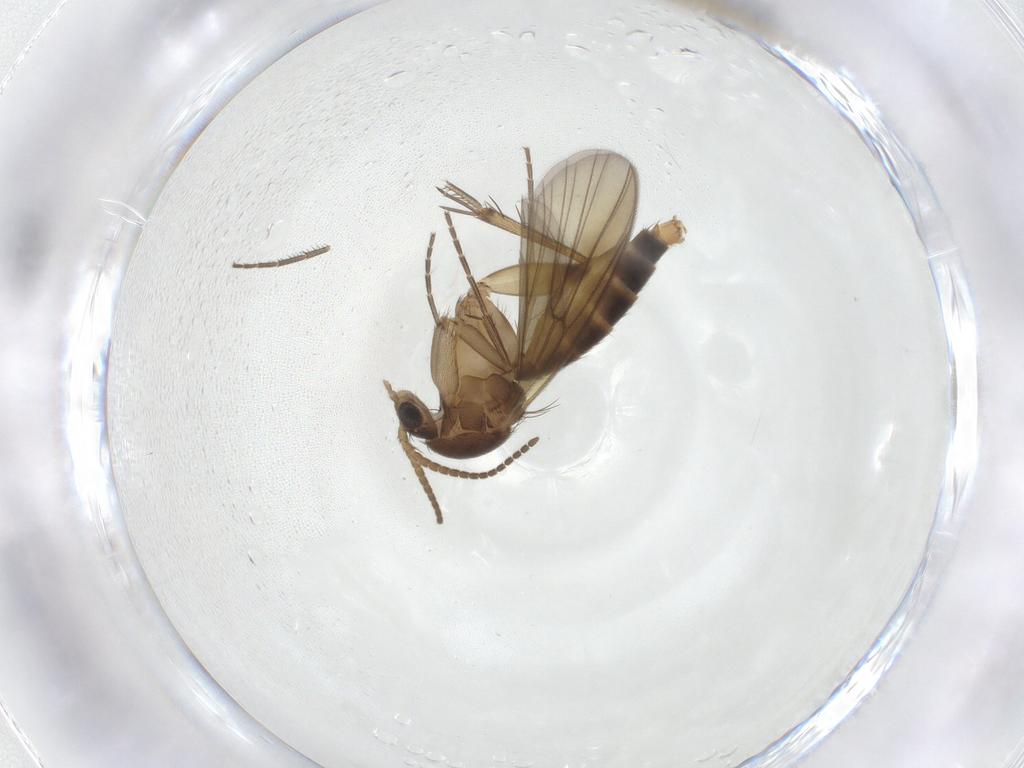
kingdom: Animalia
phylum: Arthropoda
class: Insecta
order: Diptera
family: Mycetophilidae
